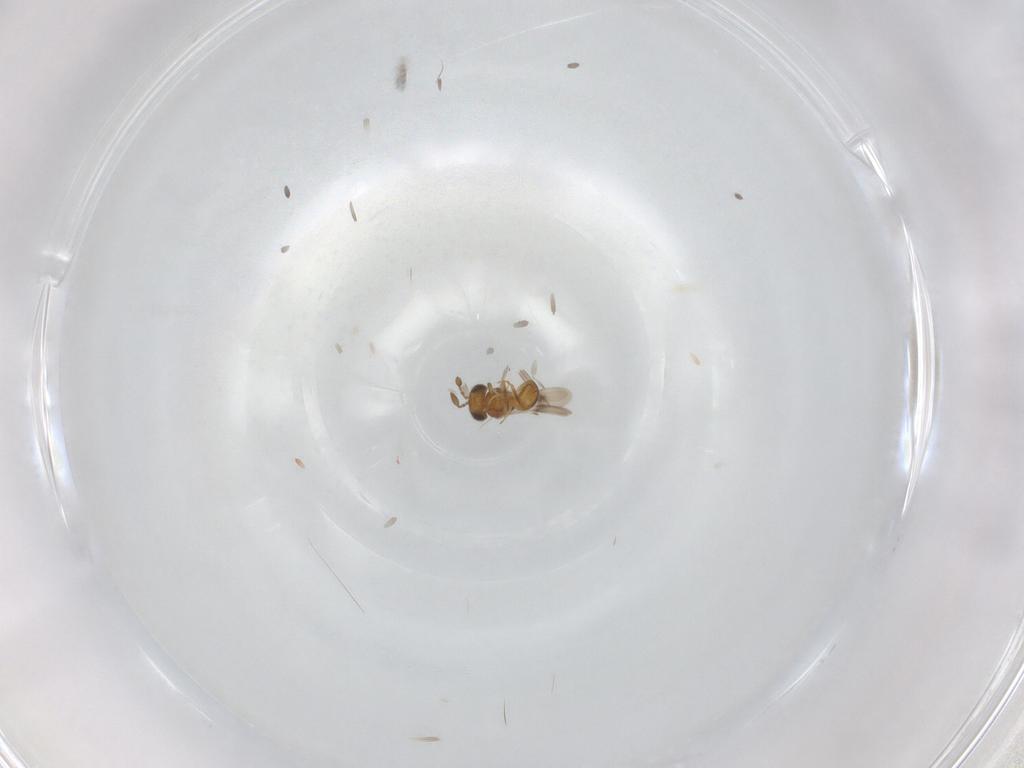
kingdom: Animalia
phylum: Arthropoda
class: Insecta
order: Hymenoptera
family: Scelionidae
